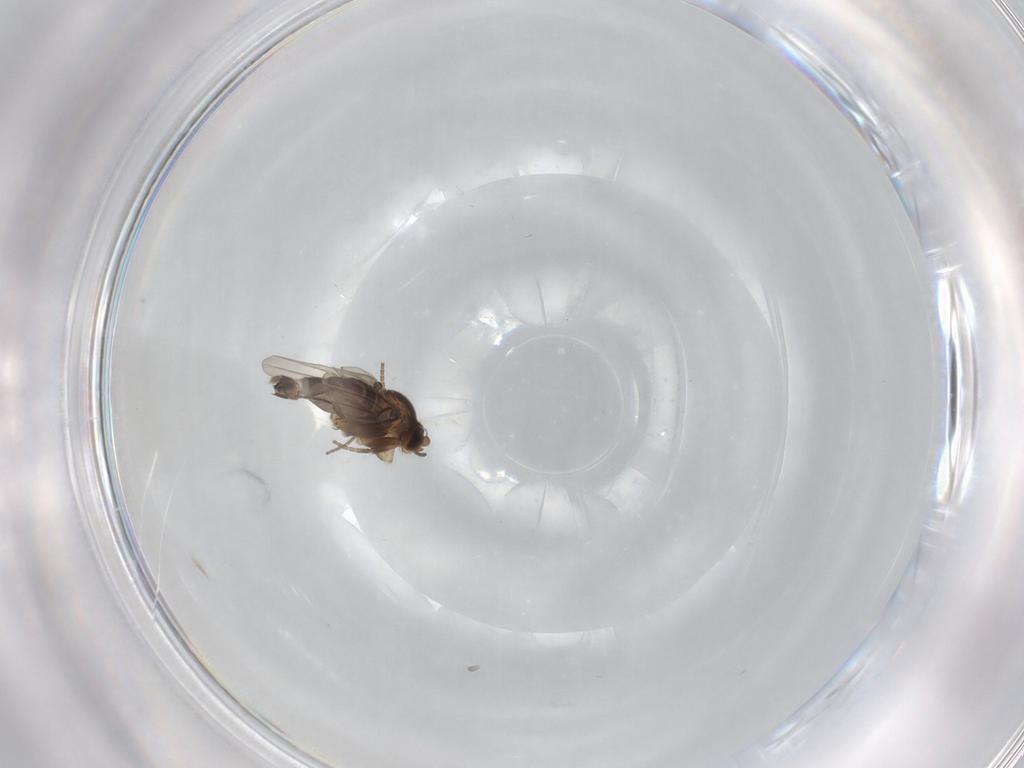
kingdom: Animalia
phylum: Arthropoda
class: Insecta
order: Diptera
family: Phoridae
